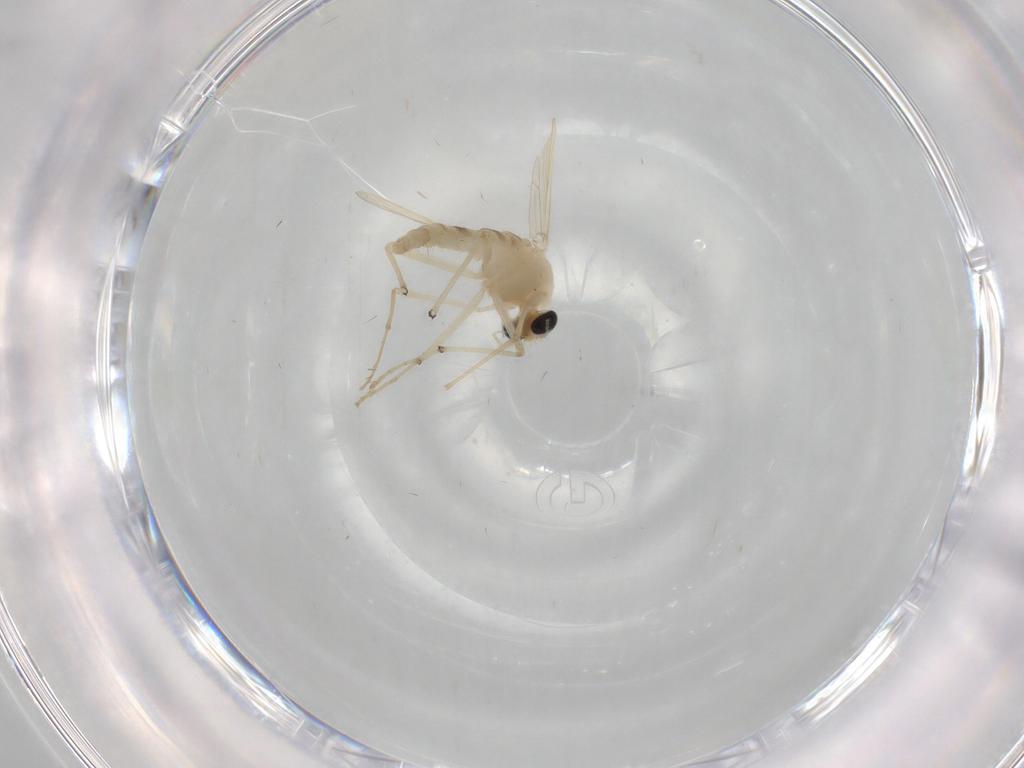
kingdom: Animalia
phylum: Arthropoda
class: Insecta
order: Diptera
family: Chironomidae
